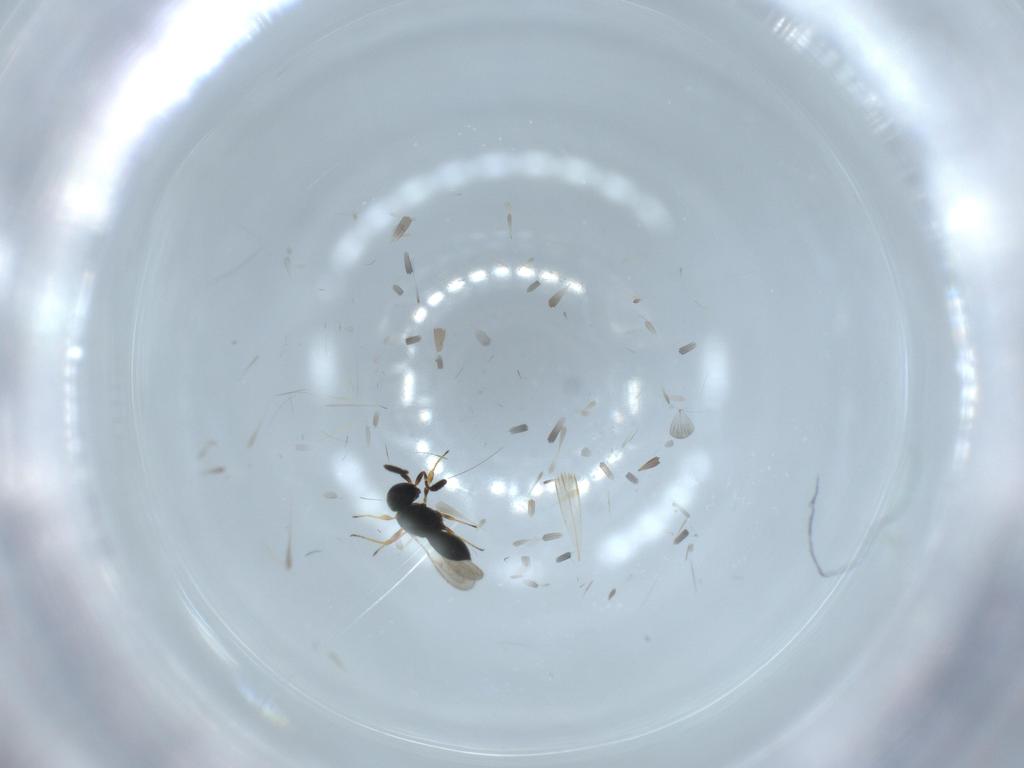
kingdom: Animalia
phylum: Arthropoda
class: Insecta
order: Hymenoptera
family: Scelionidae
